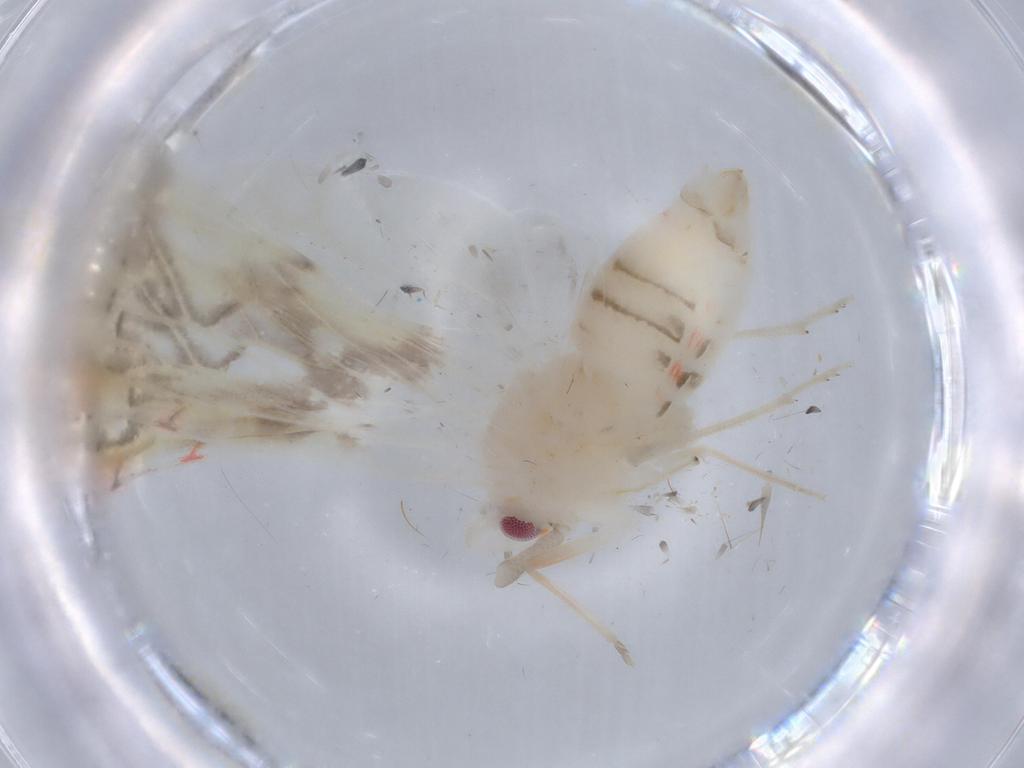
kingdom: Animalia
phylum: Arthropoda
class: Insecta
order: Hemiptera
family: Derbidae
